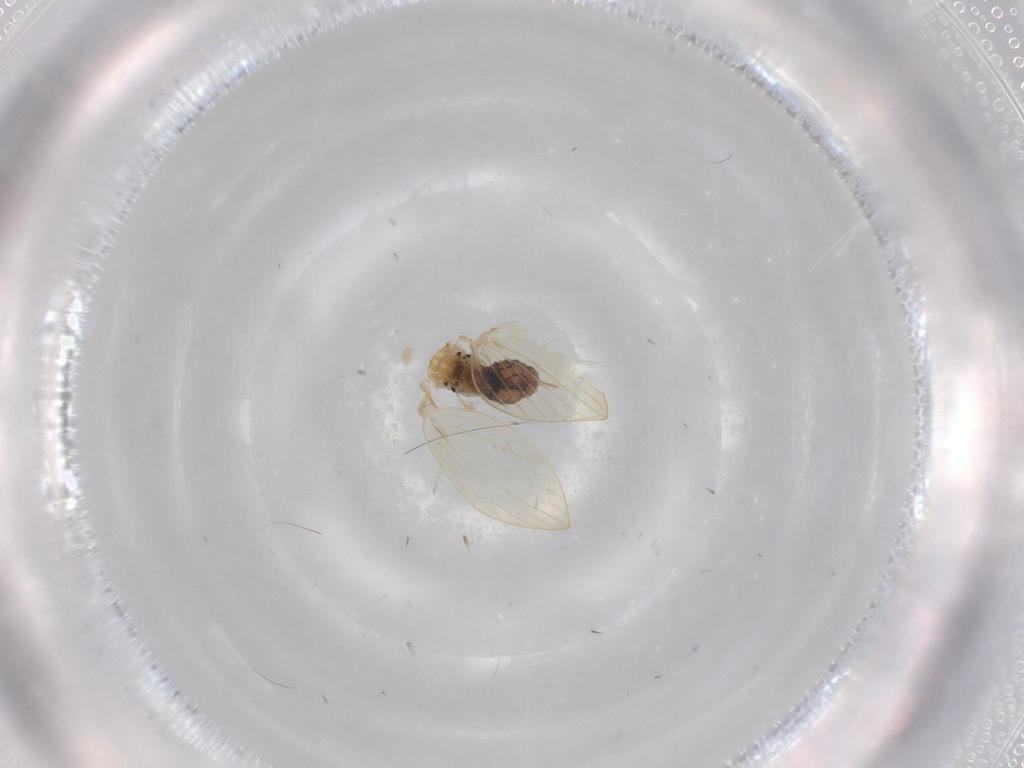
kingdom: Animalia
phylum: Arthropoda
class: Insecta
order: Diptera
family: Psychodidae
